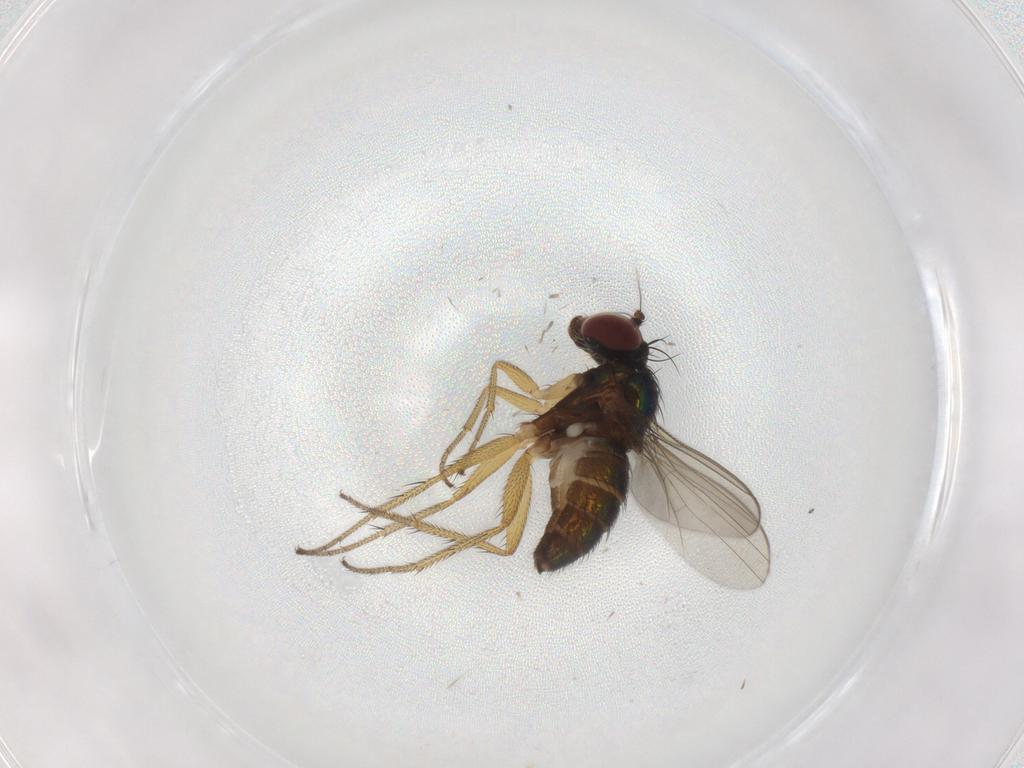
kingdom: Animalia
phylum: Arthropoda
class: Insecta
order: Diptera
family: Dolichopodidae
